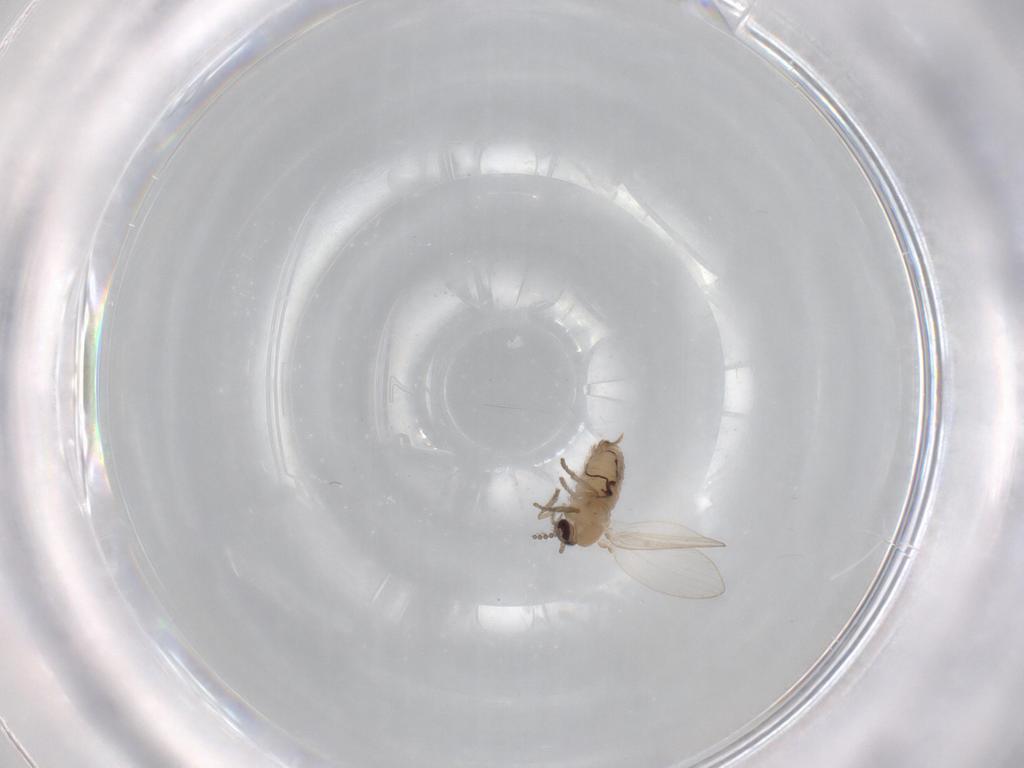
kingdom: Animalia
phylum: Arthropoda
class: Insecta
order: Diptera
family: Psychodidae
